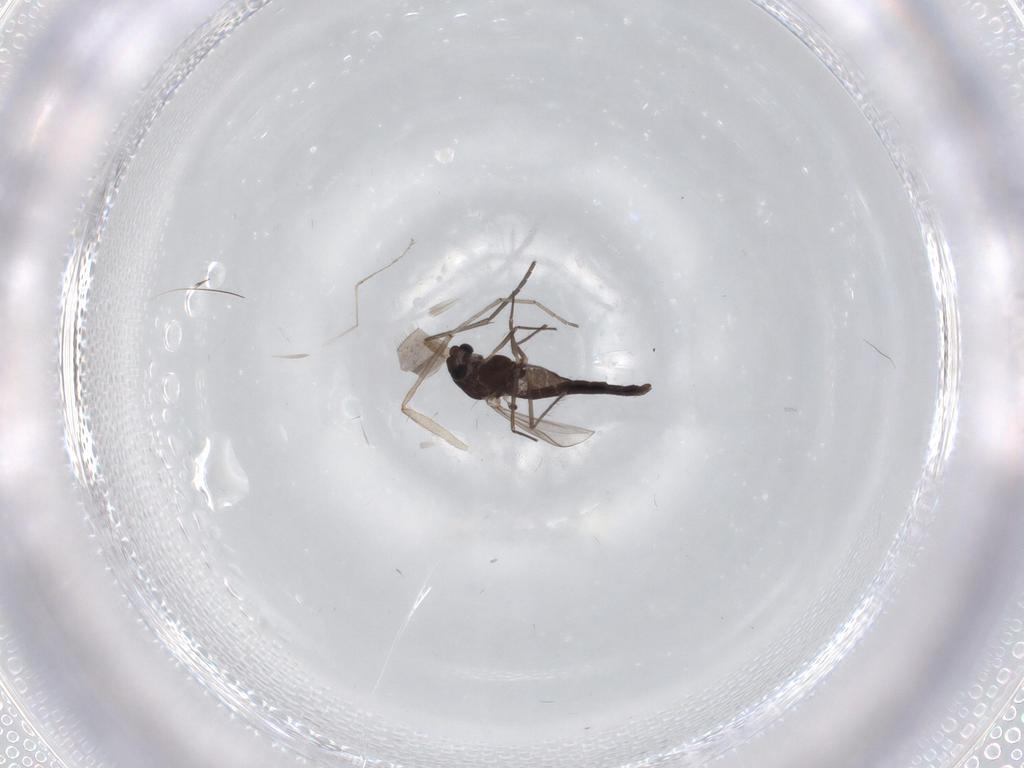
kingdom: Animalia
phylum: Arthropoda
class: Insecta
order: Diptera
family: Chironomidae
